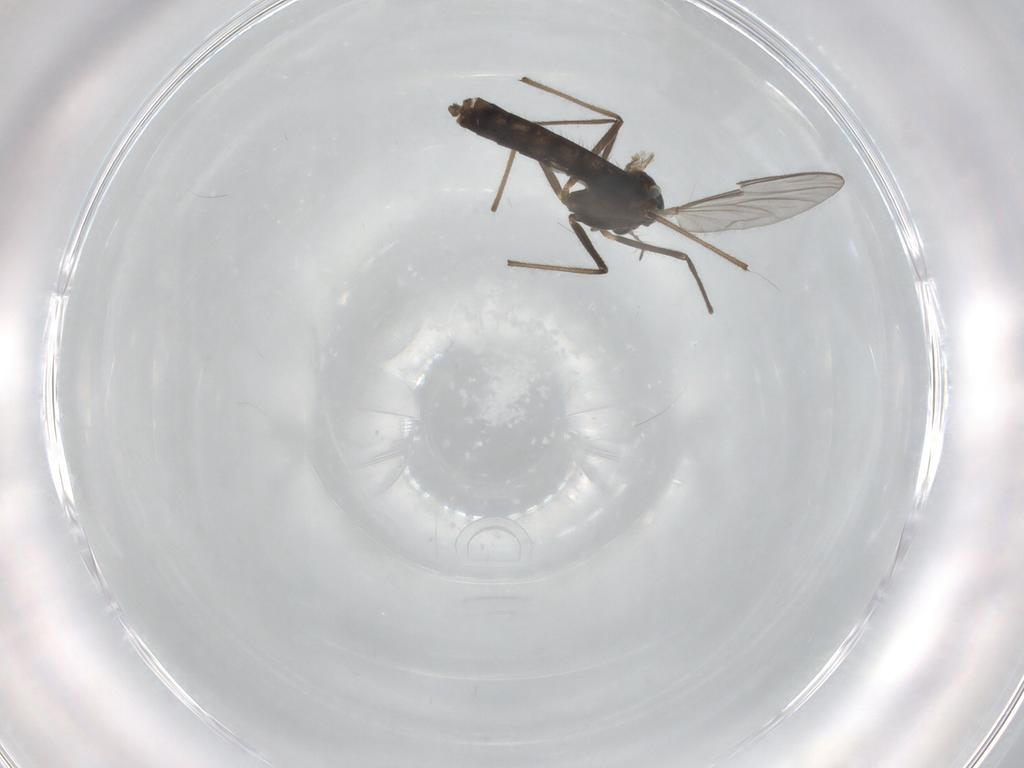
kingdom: Animalia
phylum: Arthropoda
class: Insecta
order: Diptera
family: Chironomidae
